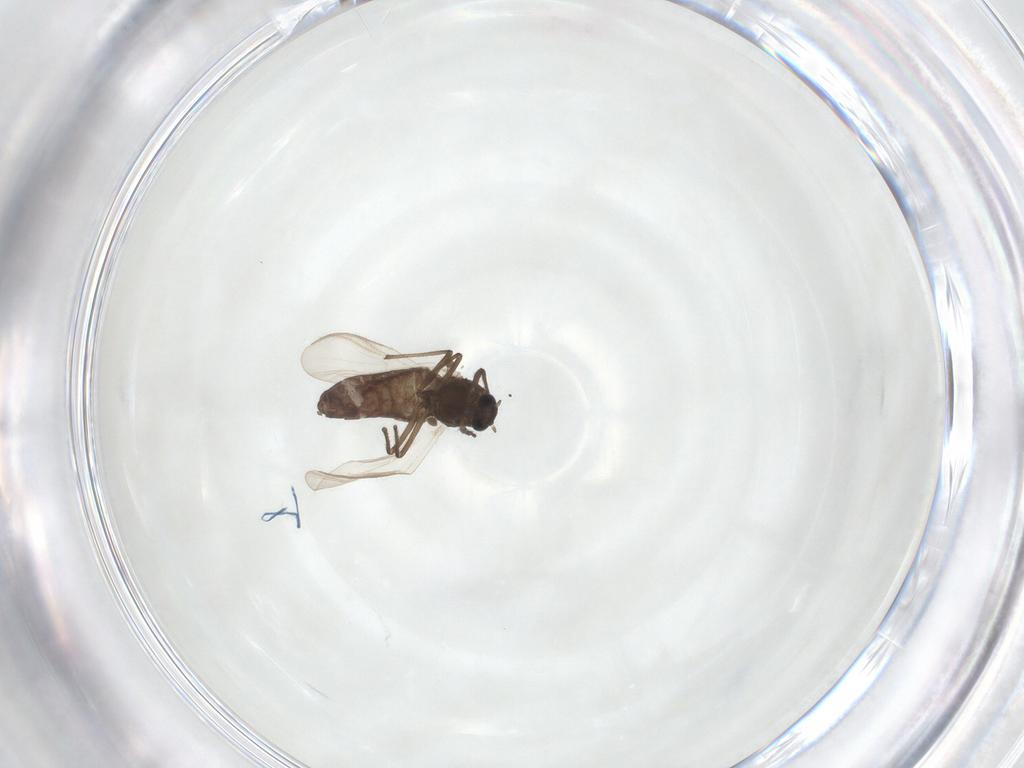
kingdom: Animalia
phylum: Arthropoda
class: Insecta
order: Diptera
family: Chironomidae
